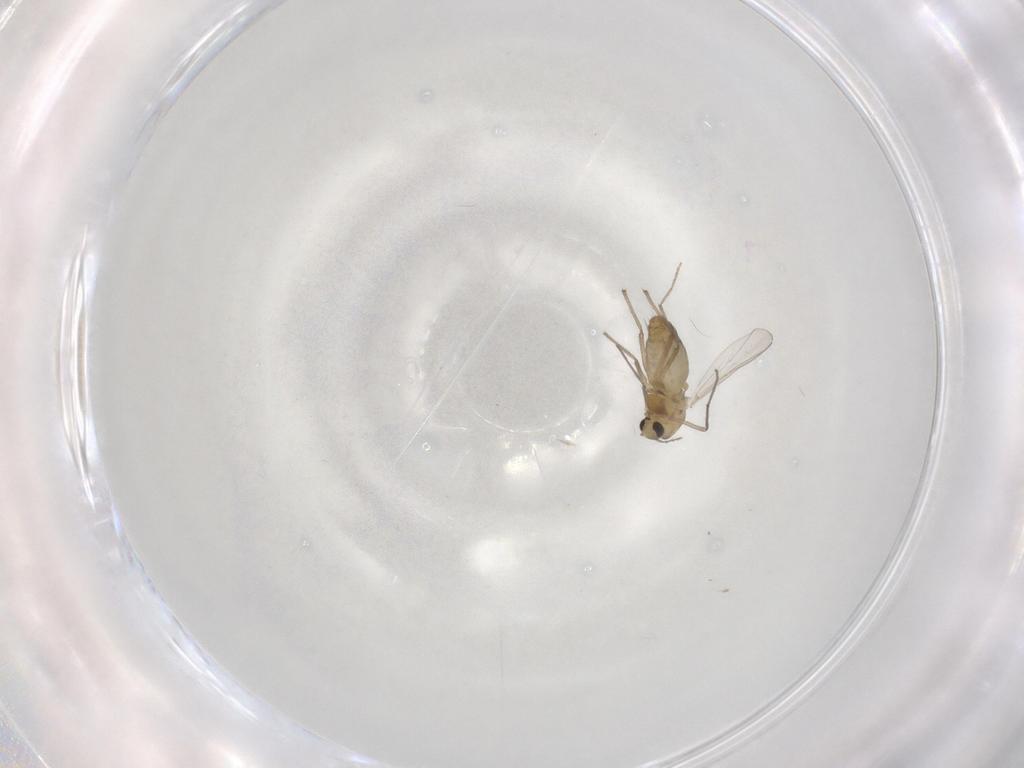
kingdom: Animalia
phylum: Arthropoda
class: Insecta
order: Diptera
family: Chironomidae
